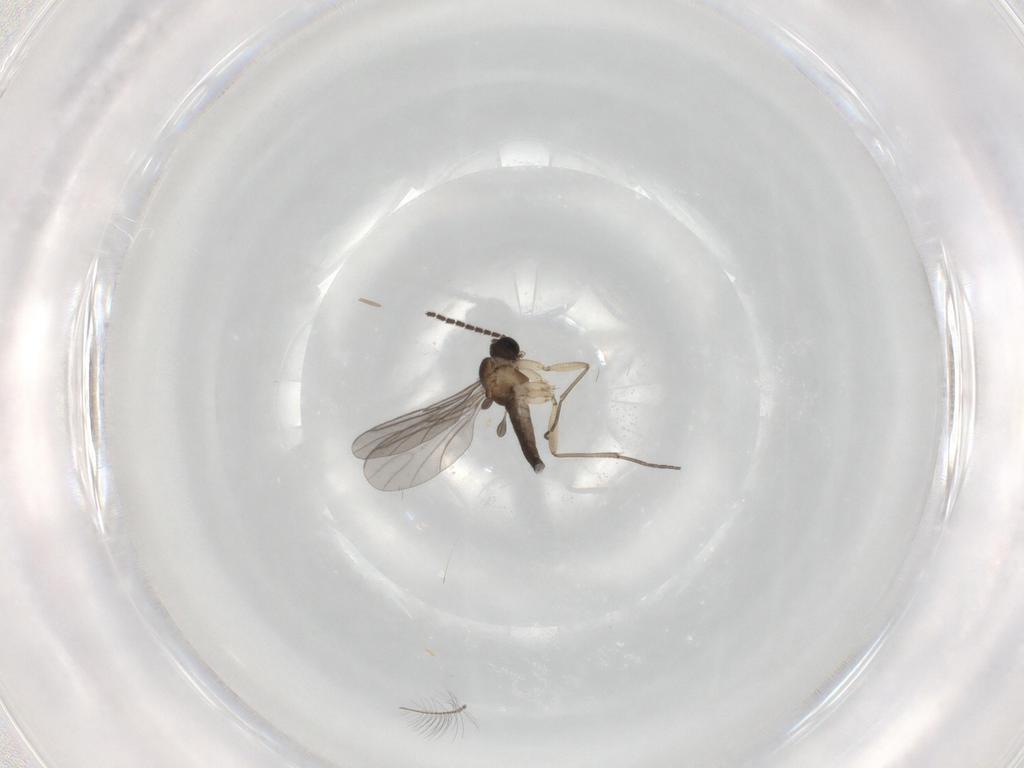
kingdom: Animalia
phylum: Arthropoda
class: Insecta
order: Diptera
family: Sciaridae
